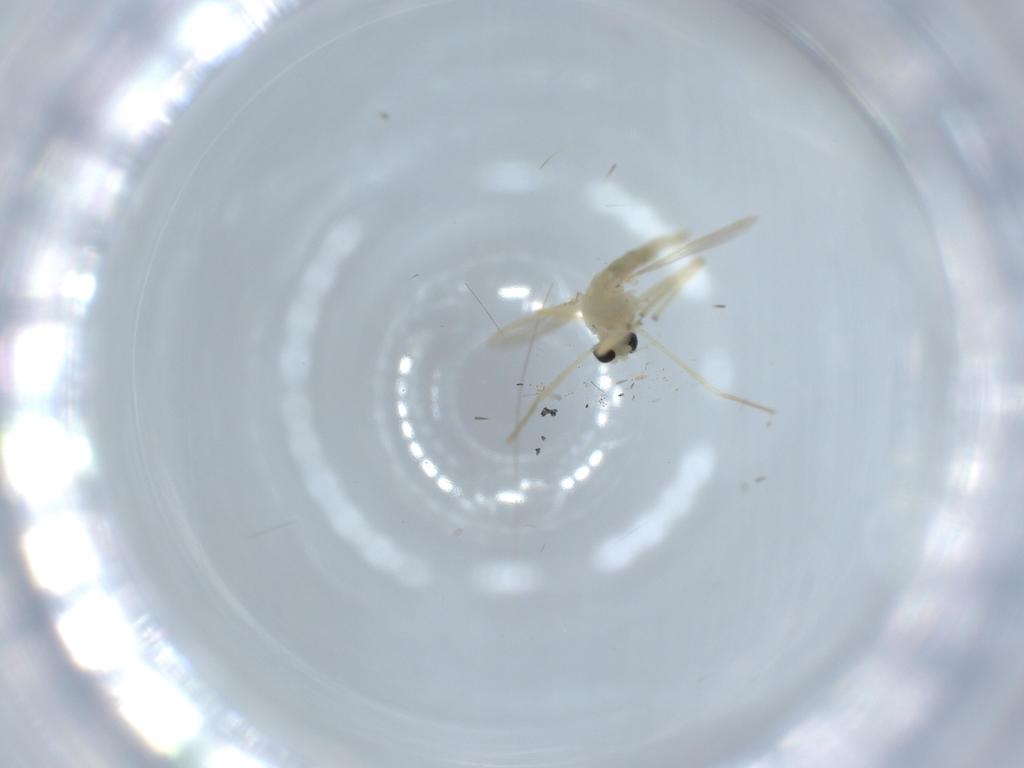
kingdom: Animalia
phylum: Arthropoda
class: Insecta
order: Diptera
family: Chironomidae
